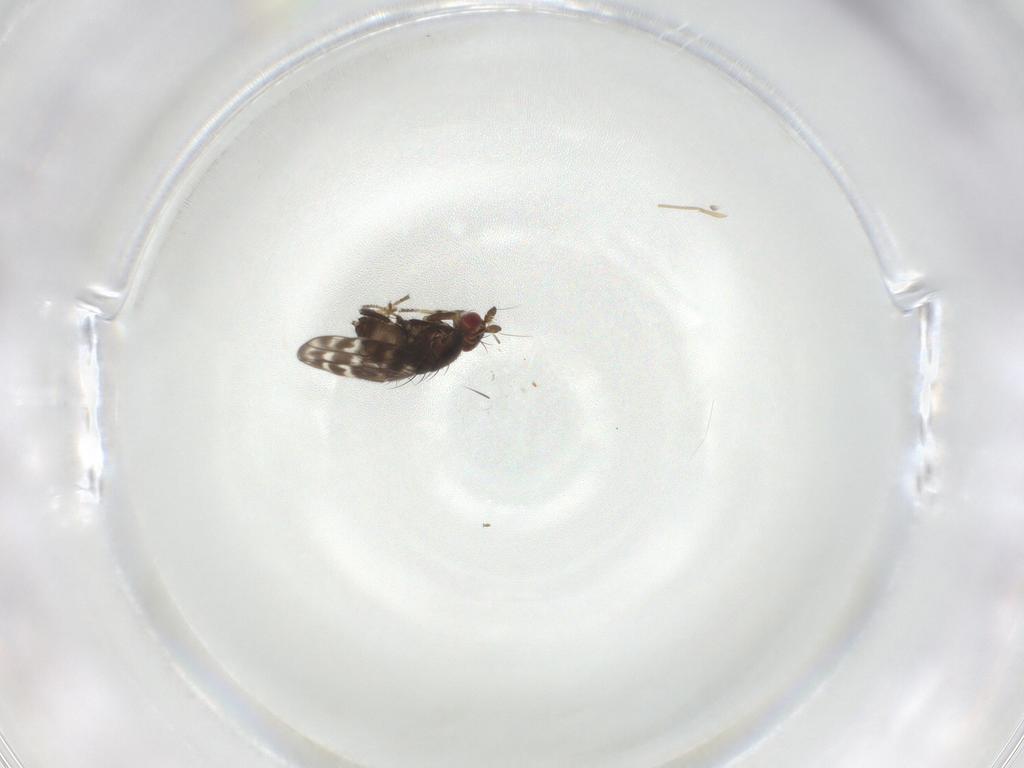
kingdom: Animalia
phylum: Arthropoda
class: Insecta
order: Diptera
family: Sphaeroceridae
